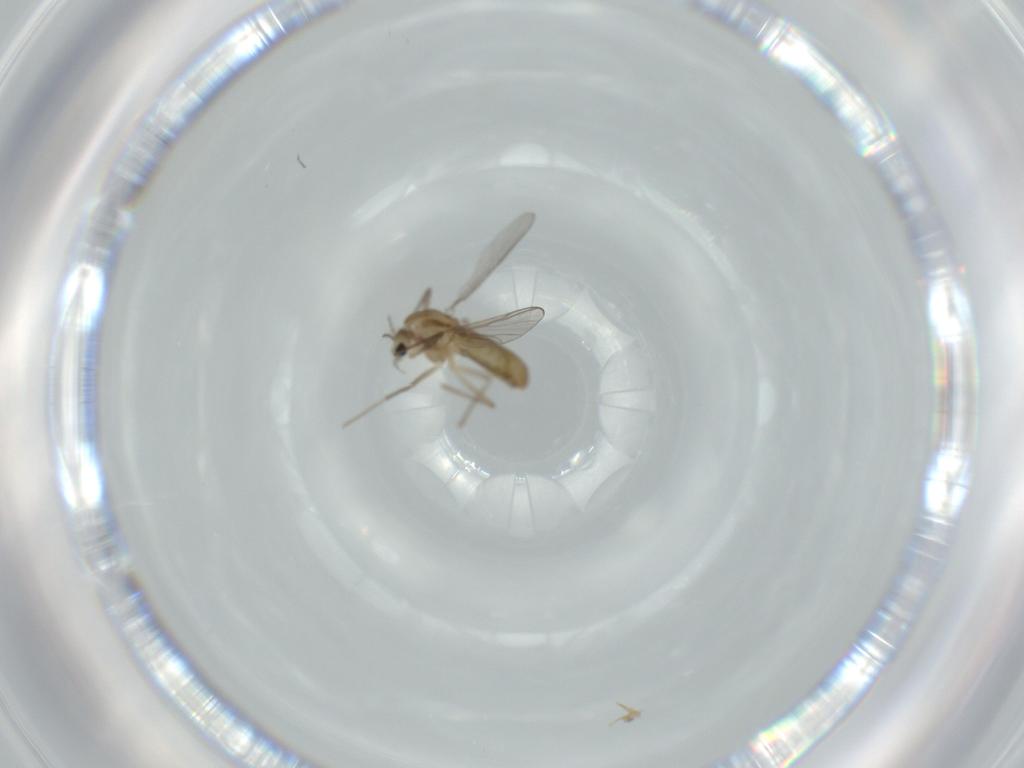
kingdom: Animalia
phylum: Arthropoda
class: Insecta
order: Diptera
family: Chironomidae
